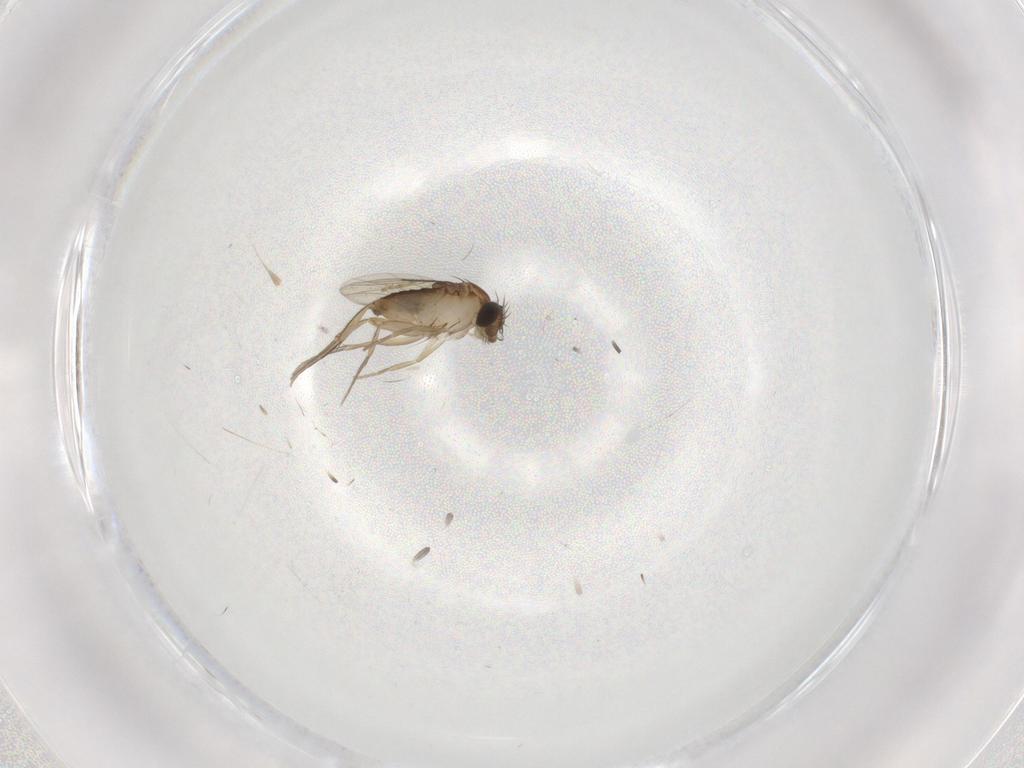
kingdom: Animalia
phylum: Arthropoda
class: Insecta
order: Diptera
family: Phoridae
